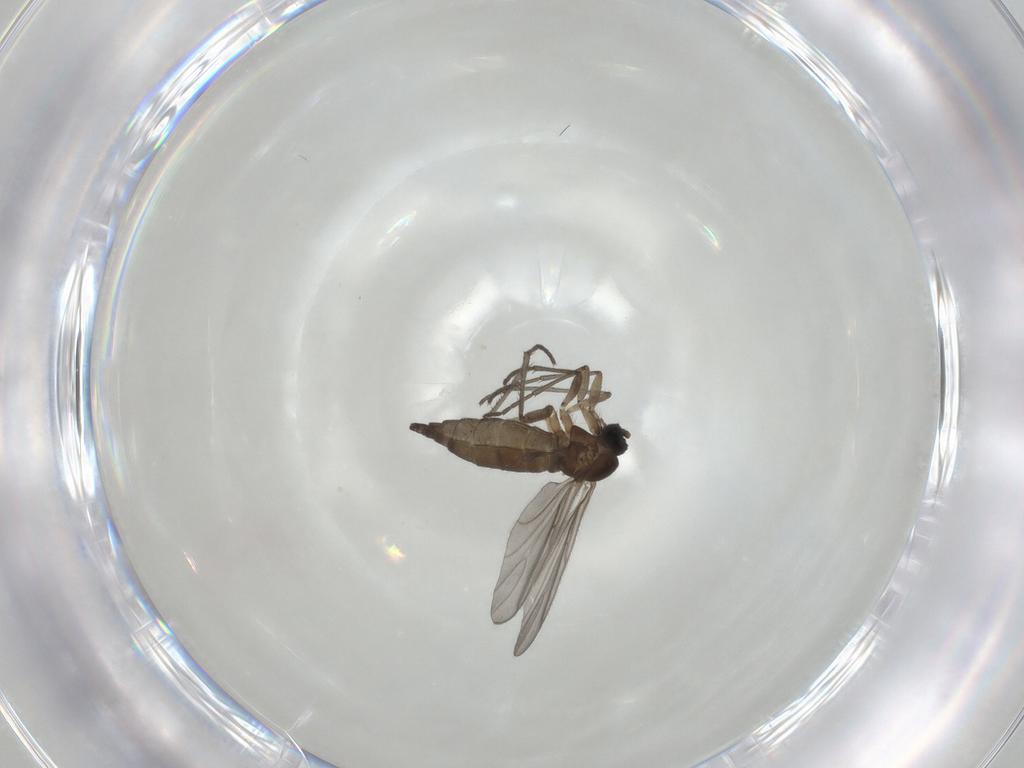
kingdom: Animalia
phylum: Arthropoda
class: Insecta
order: Diptera
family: Sciaridae
